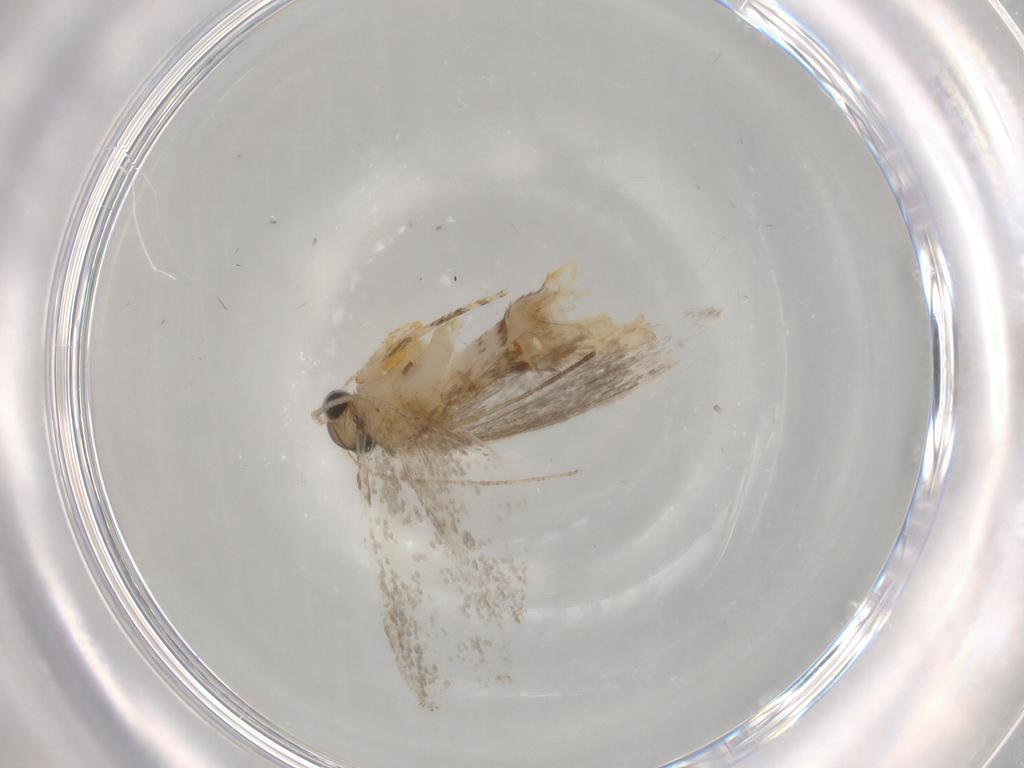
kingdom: Animalia
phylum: Arthropoda
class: Insecta
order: Lepidoptera
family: Tineidae
